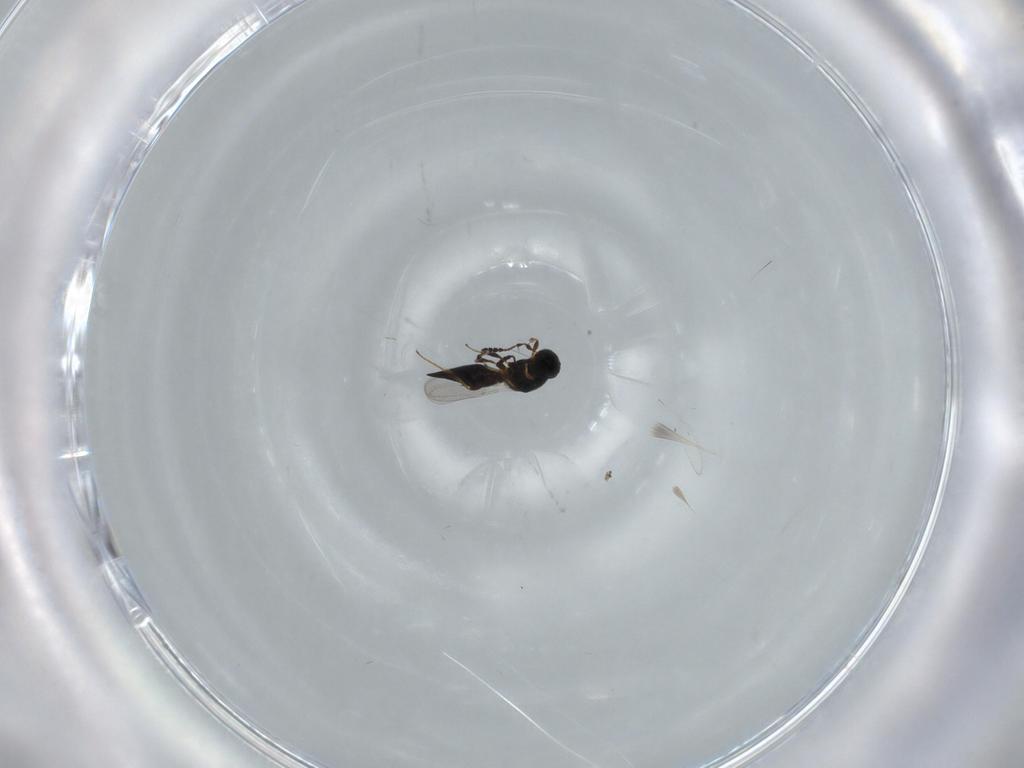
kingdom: Animalia
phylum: Arthropoda
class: Insecta
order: Hymenoptera
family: Platygastridae
